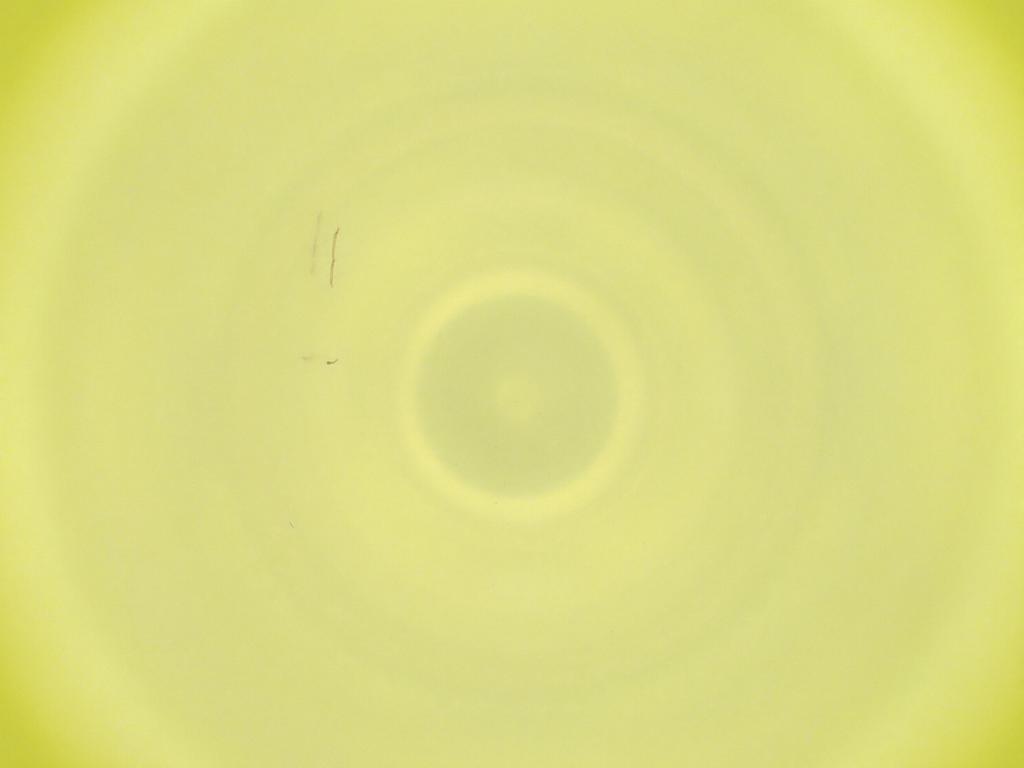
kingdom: Animalia
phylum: Arthropoda
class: Insecta
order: Diptera
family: Cecidomyiidae
